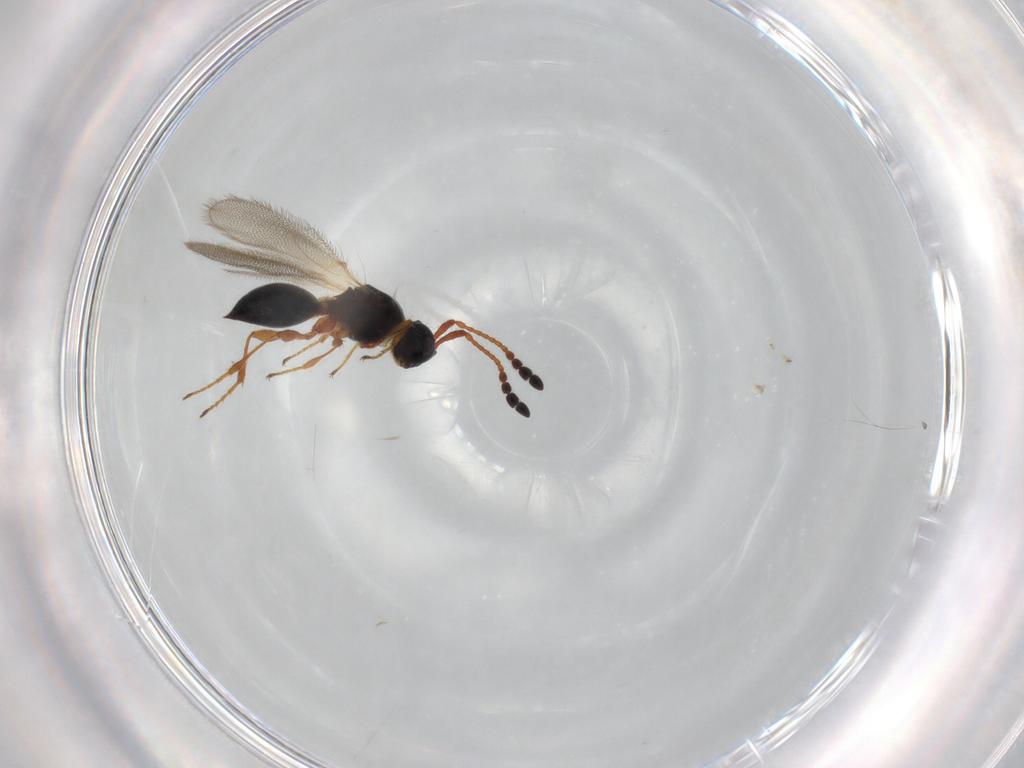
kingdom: Animalia
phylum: Arthropoda
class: Insecta
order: Hymenoptera
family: Diapriidae
